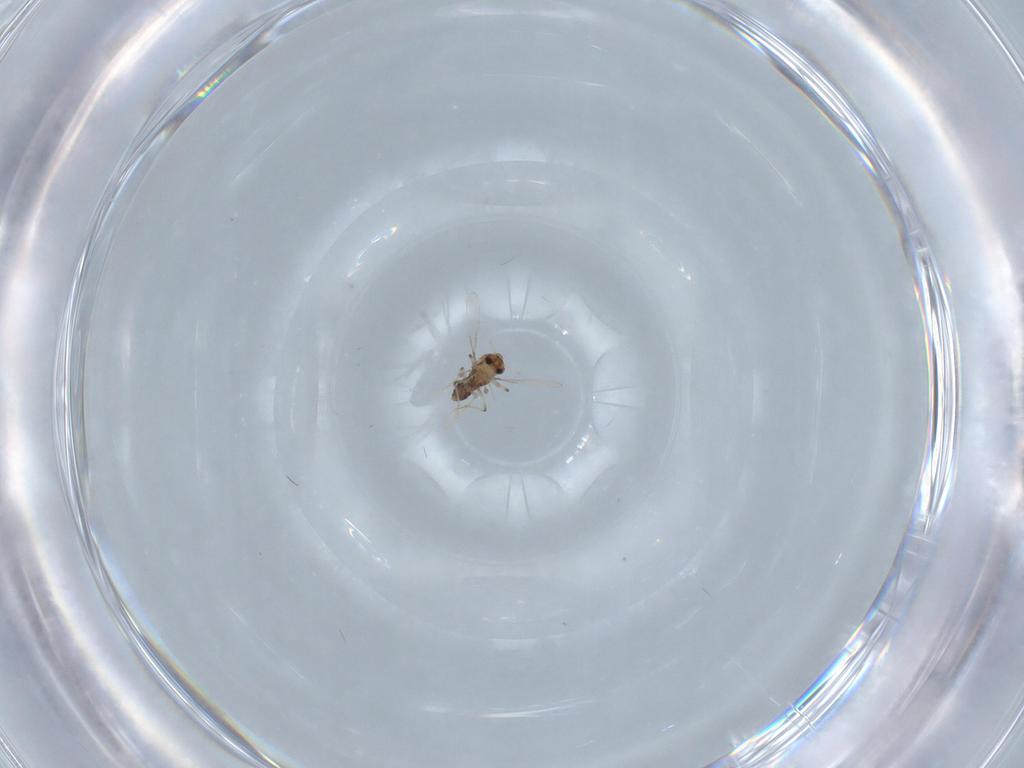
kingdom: Animalia
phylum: Arthropoda
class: Insecta
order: Diptera
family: Chironomidae
